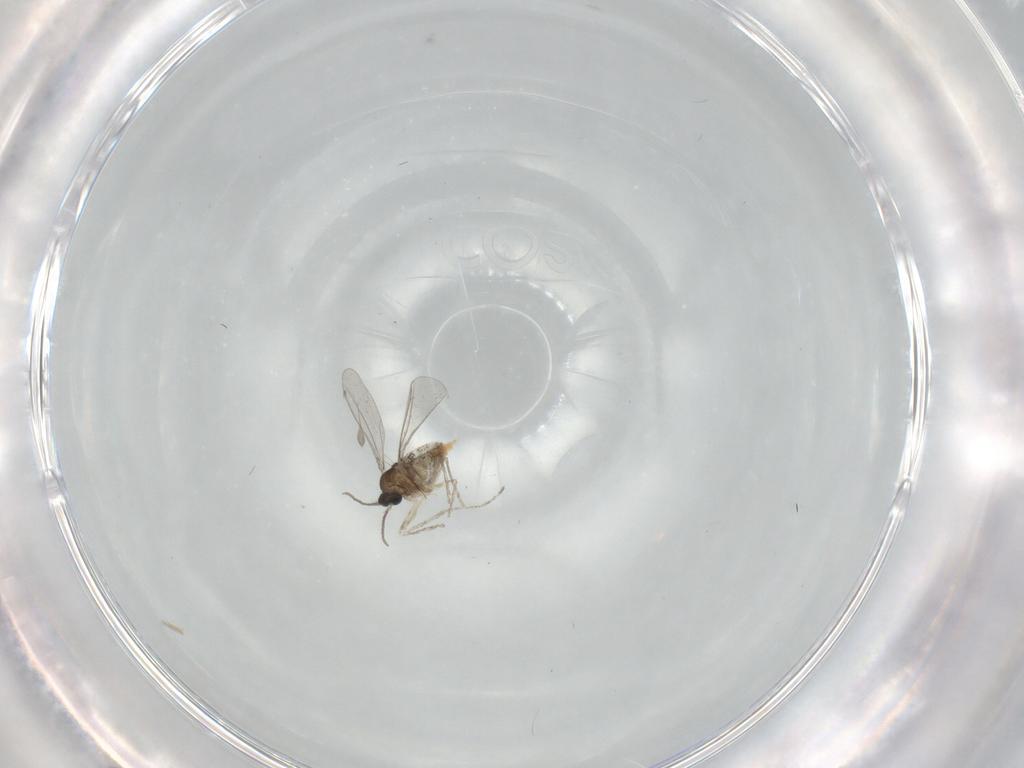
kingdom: Animalia
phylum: Arthropoda
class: Insecta
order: Diptera
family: Cecidomyiidae
